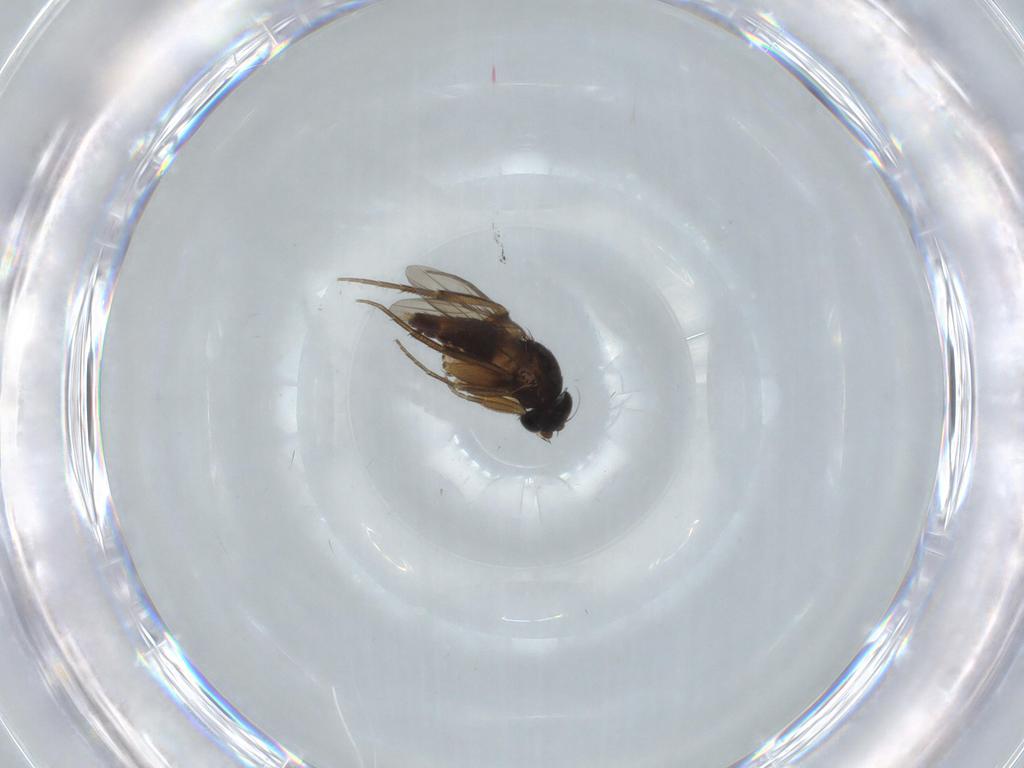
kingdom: Animalia
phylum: Arthropoda
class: Insecta
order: Diptera
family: Phoridae
